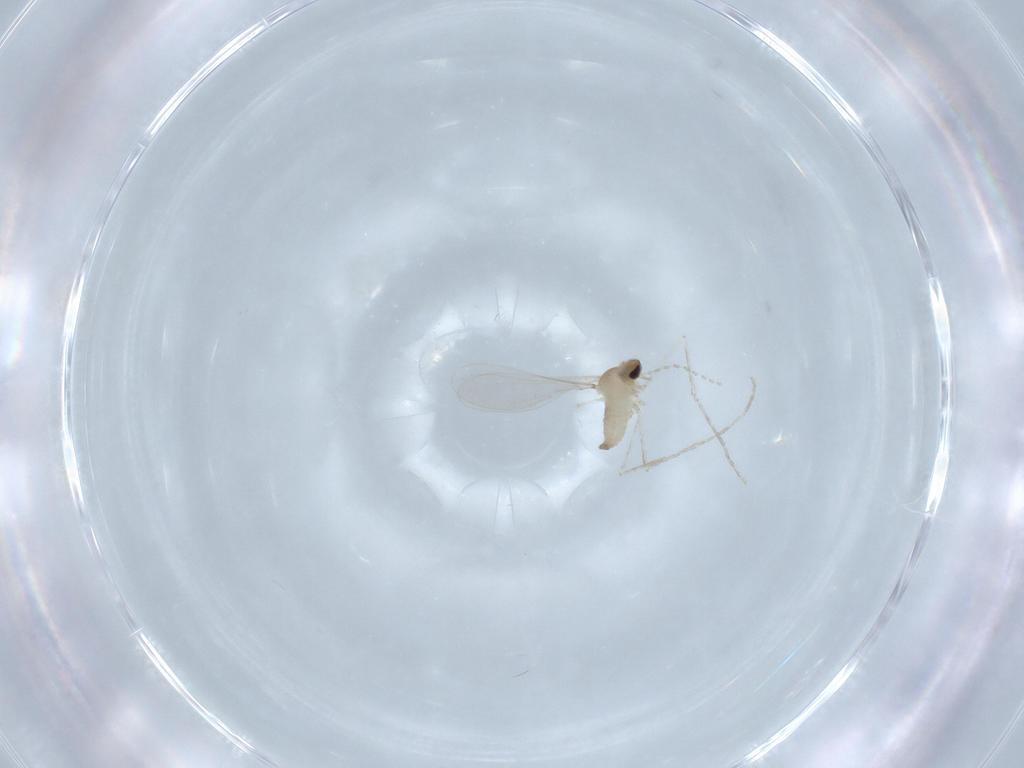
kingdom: Animalia
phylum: Arthropoda
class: Insecta
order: Diptera
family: Cecidomyiidae
